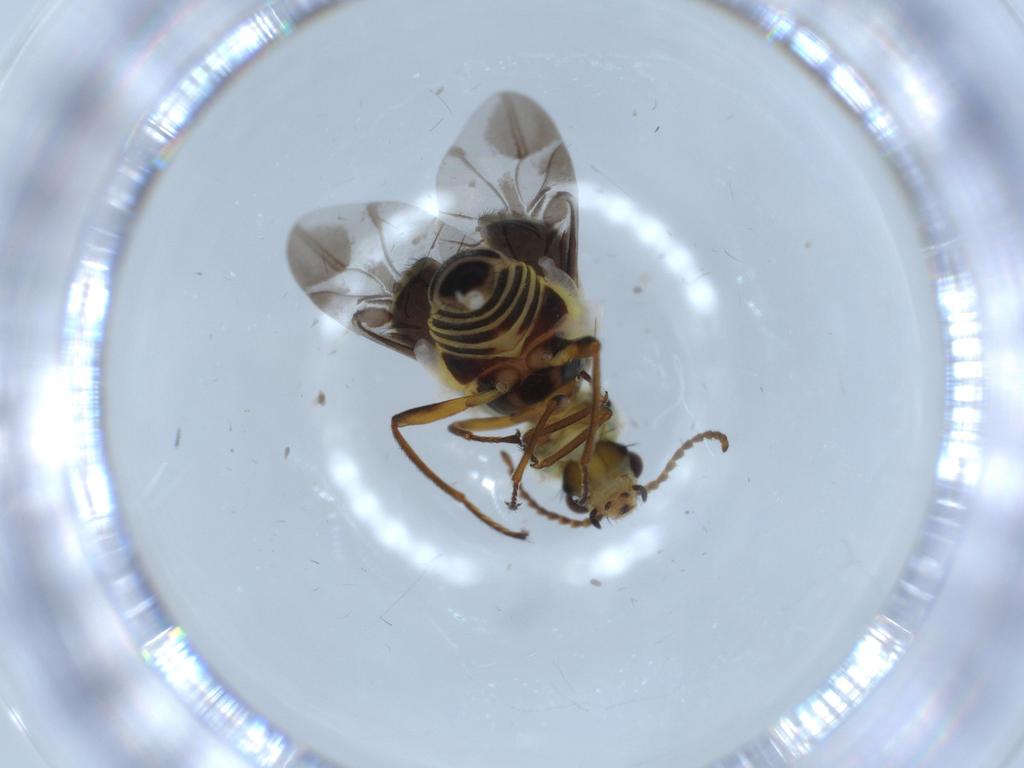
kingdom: Animalia
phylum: Arthropoda
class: Insecta
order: Coleoptera
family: Melyridae
